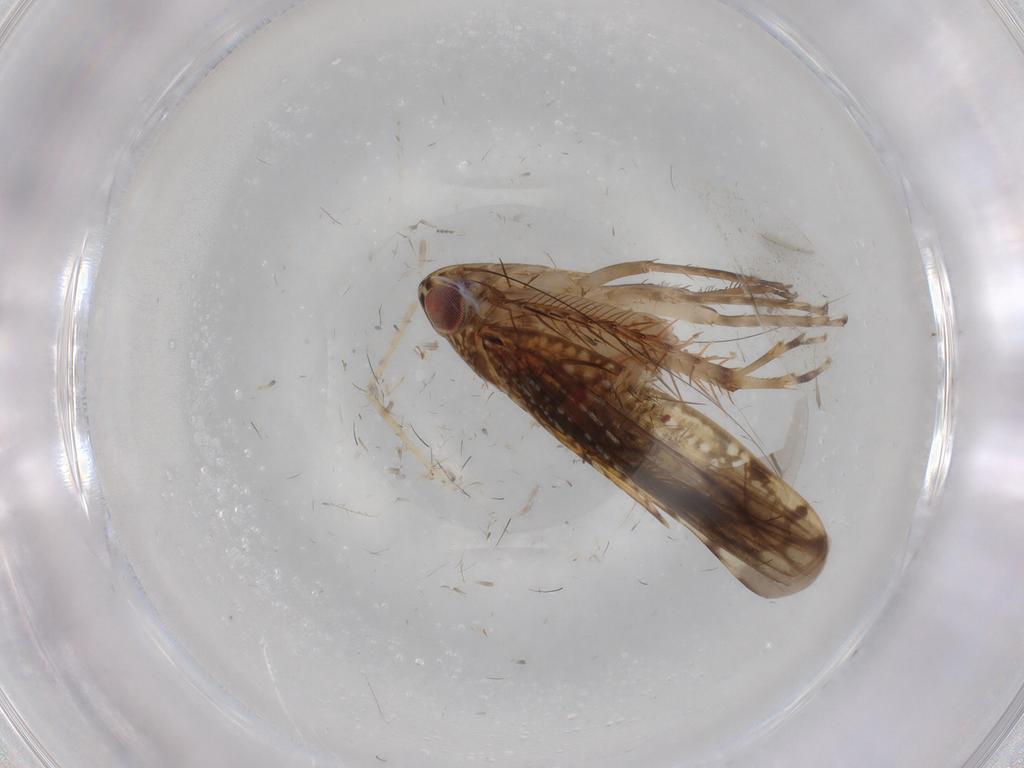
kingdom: Animalia
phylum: Arthropoda
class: Insecta
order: Hemiptera
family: Cicadellidae
